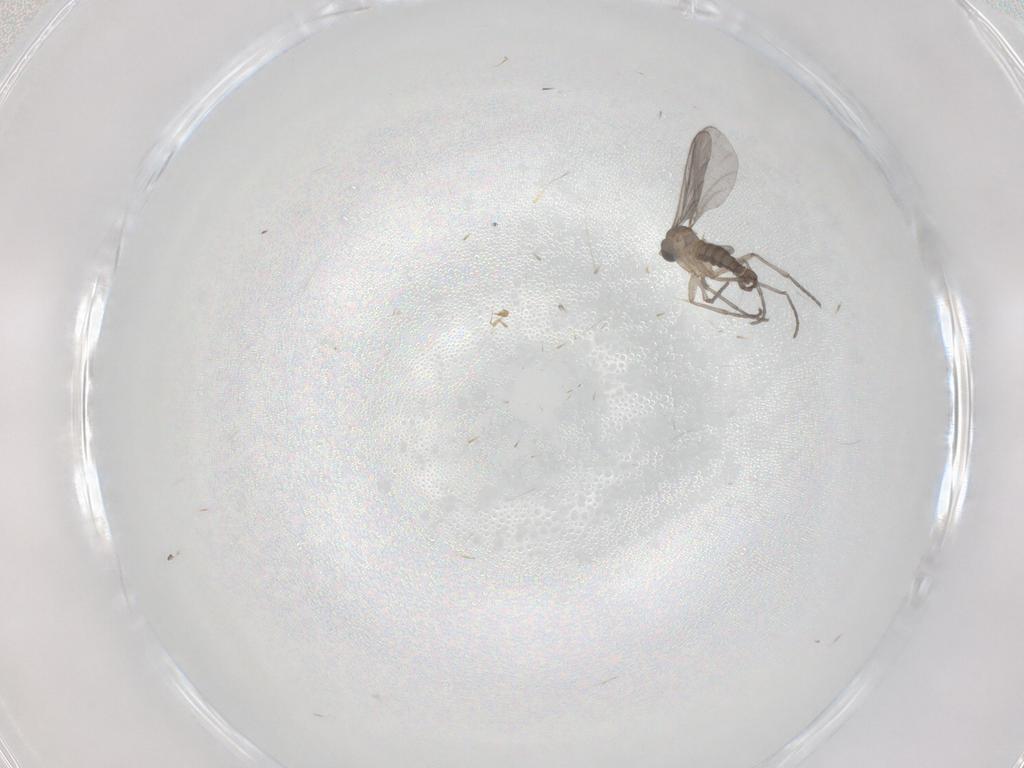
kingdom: Animalia
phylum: Arthropoda
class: Insecta
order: Diptera
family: Sciaridae
